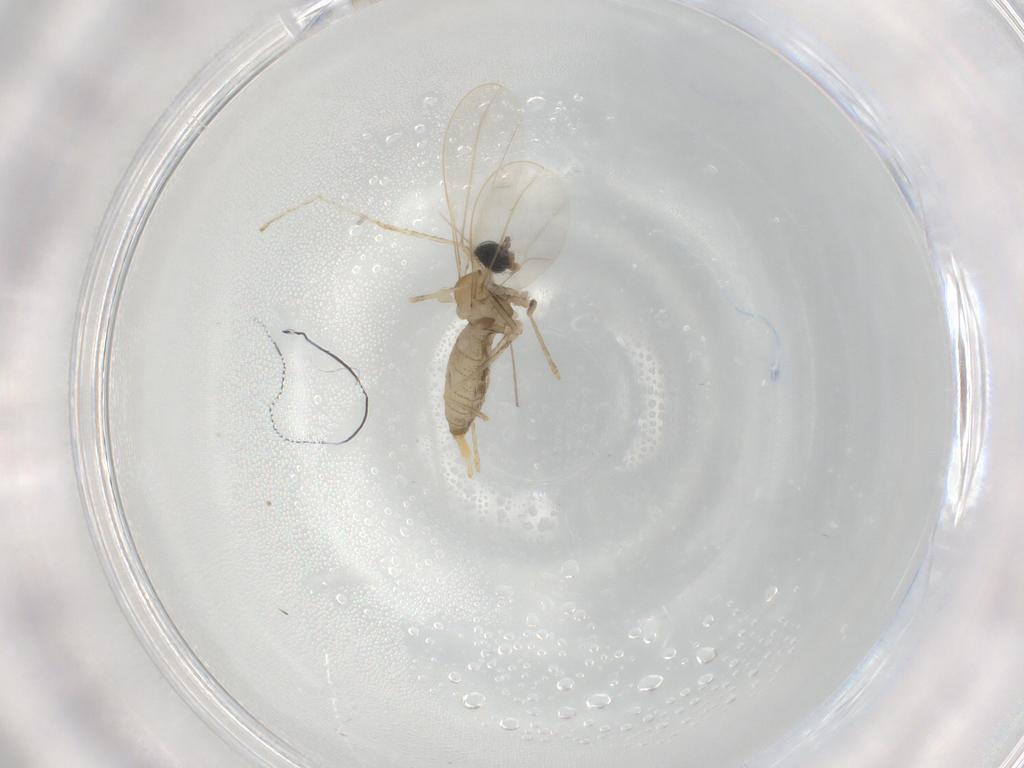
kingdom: Animalia
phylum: Arthropoda
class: Insecta
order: Diptera
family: Cecidomyiidae
